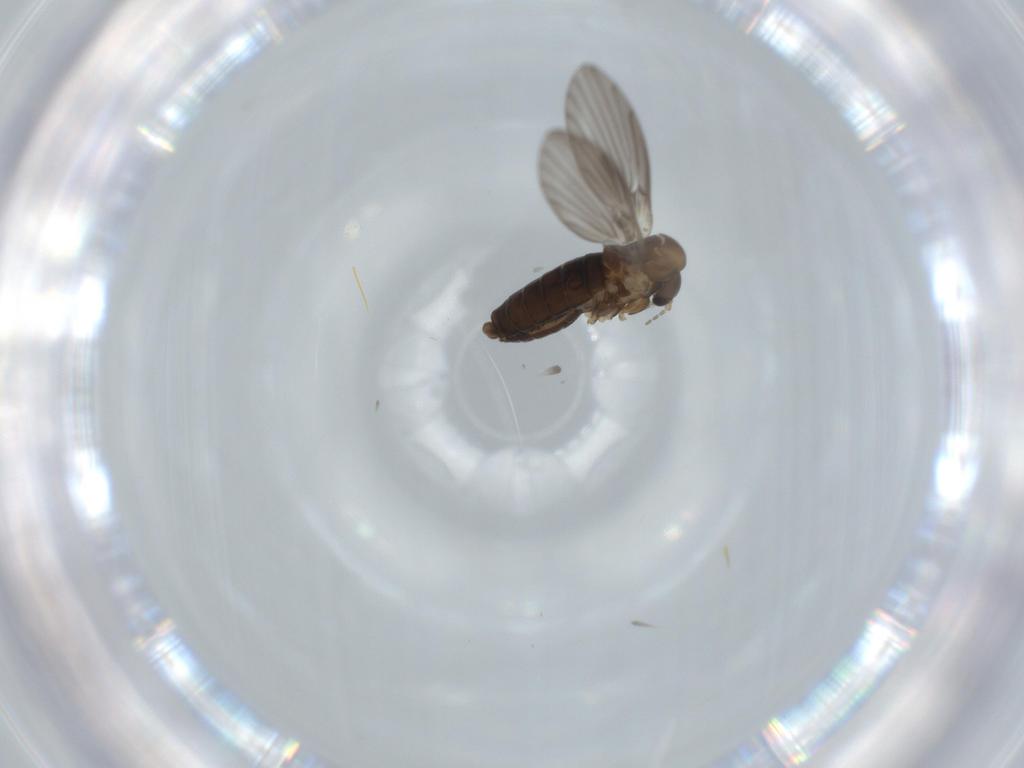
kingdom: Animalia
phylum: Arthropoda
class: Insecta
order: Diptera
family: Psychodidae
